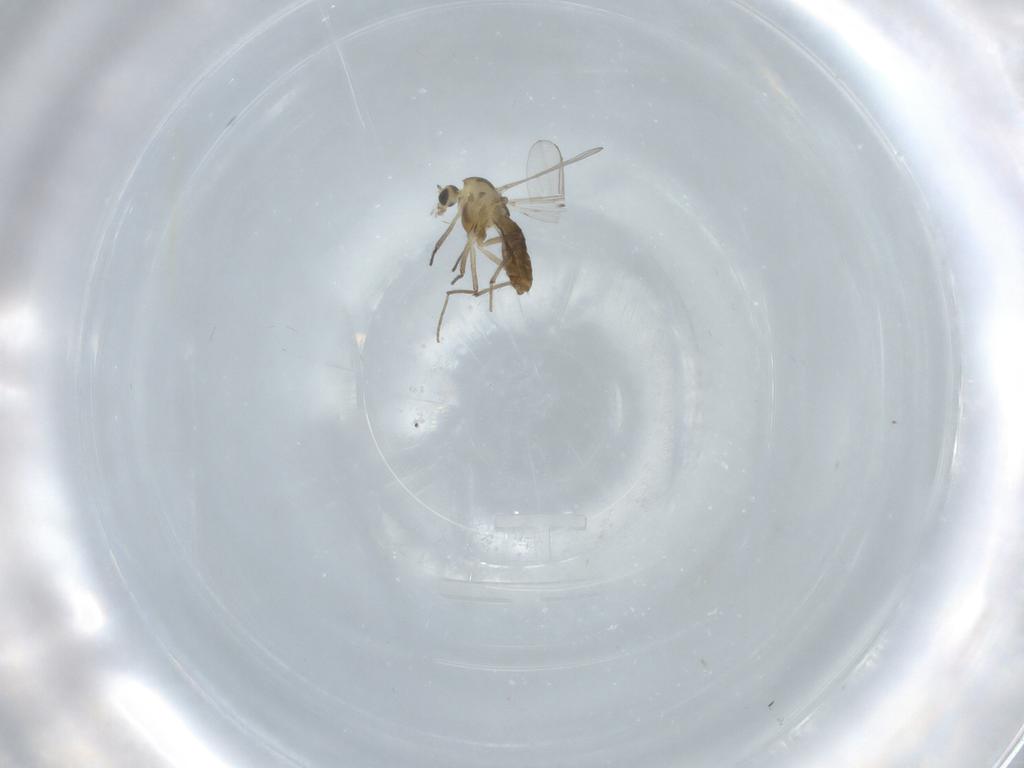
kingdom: Animalia
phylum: Arthropoda
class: Insecta
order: Diptera
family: Chironomidae
